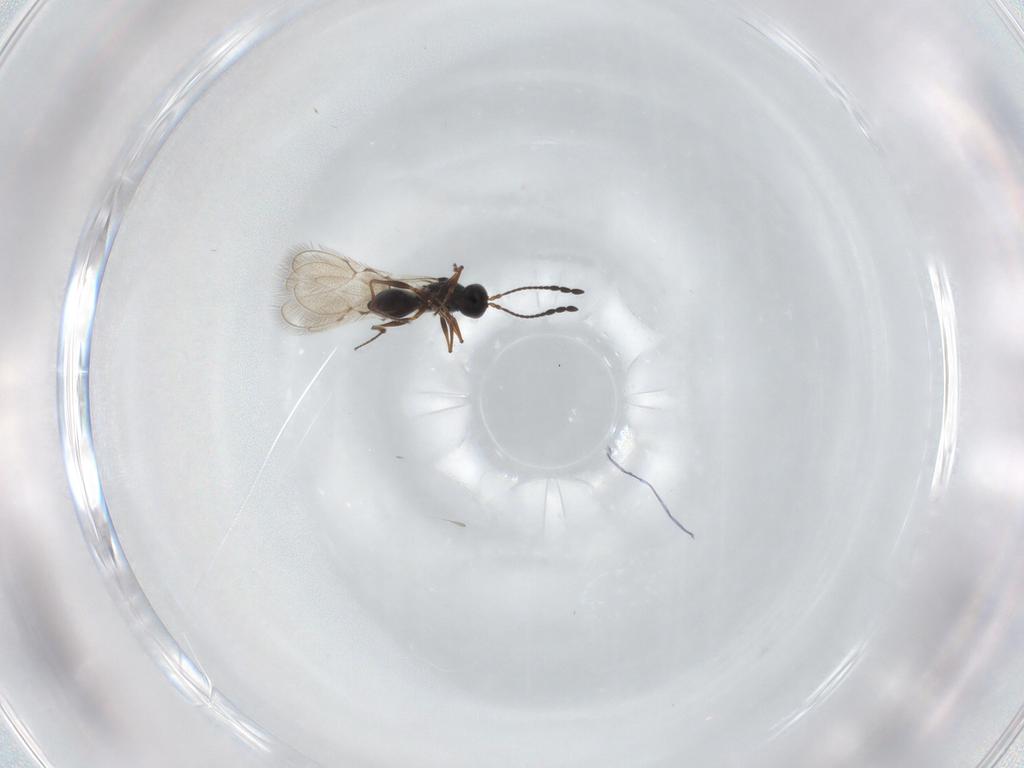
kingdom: Animalia
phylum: Arthropoda
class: Insecta
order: Hymenoptera
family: Figitidae
